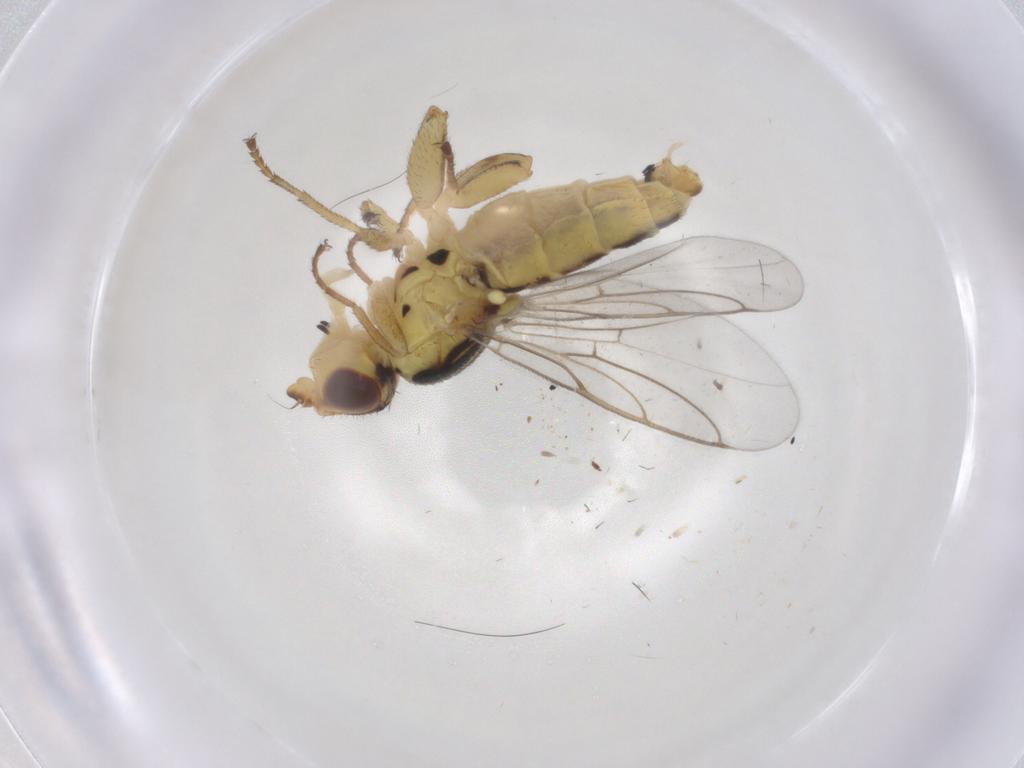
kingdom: Animalia
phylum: Arthropoda
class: Insecta
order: Diptera
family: Chloropidae
